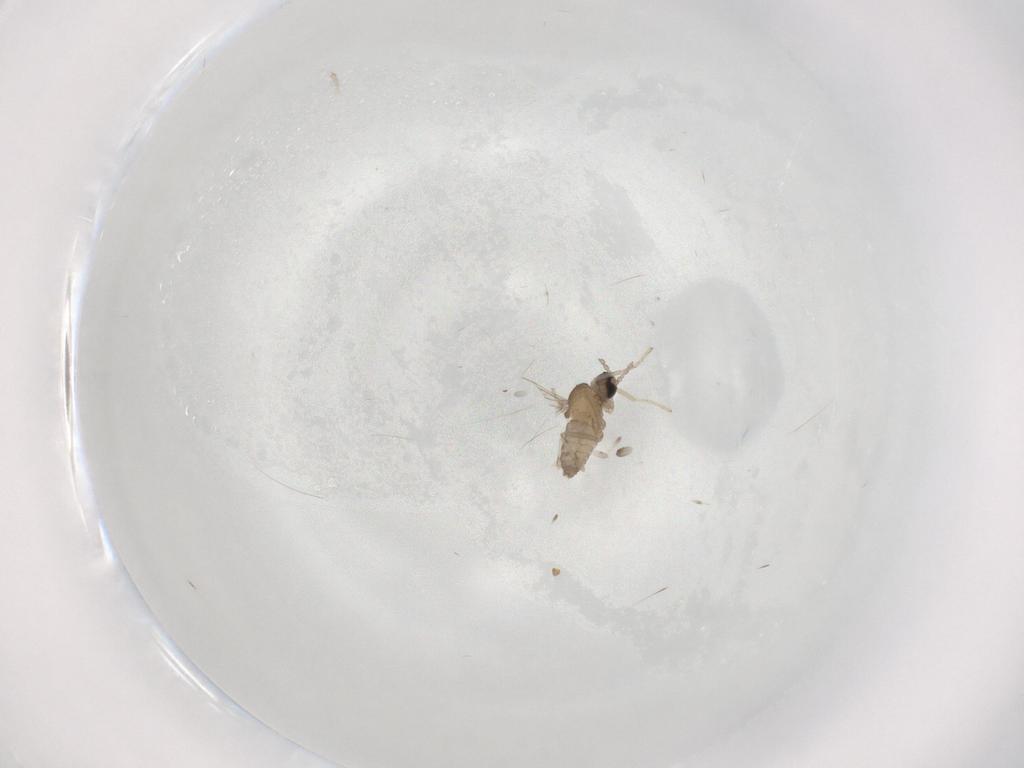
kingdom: Animalia
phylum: Arthropoda
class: Insecta
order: Diptera
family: Cecidomyiidae
